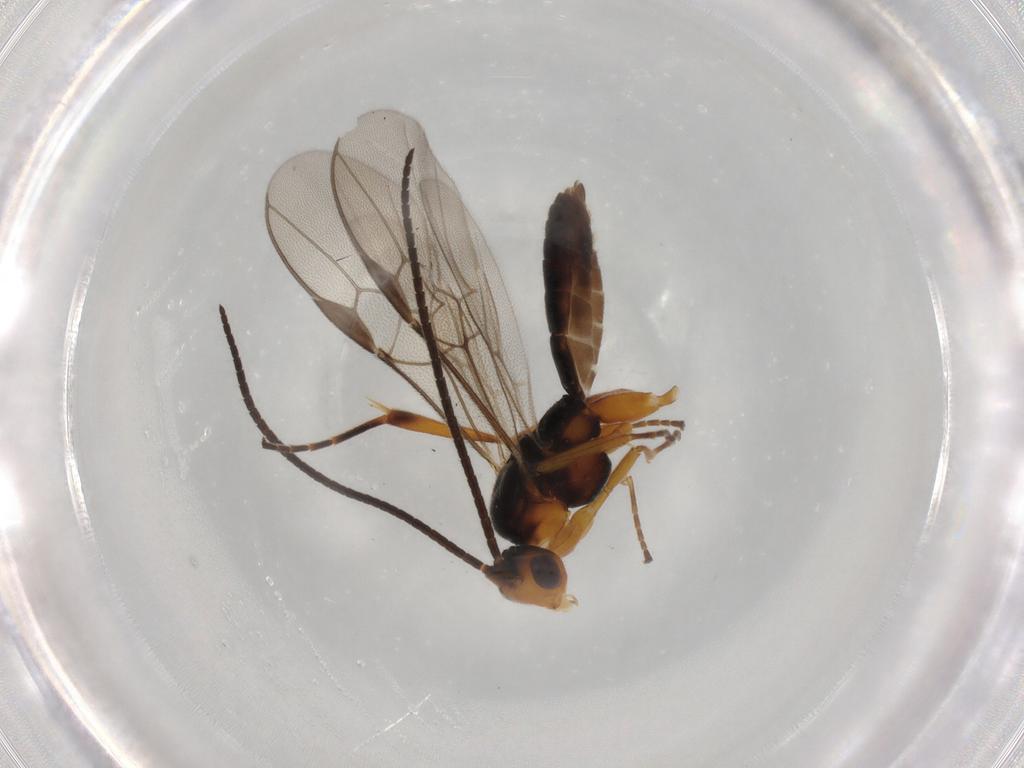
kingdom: Animalia
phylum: Arthropoda
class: Insecta
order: Hymenoptera
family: Braconidae
